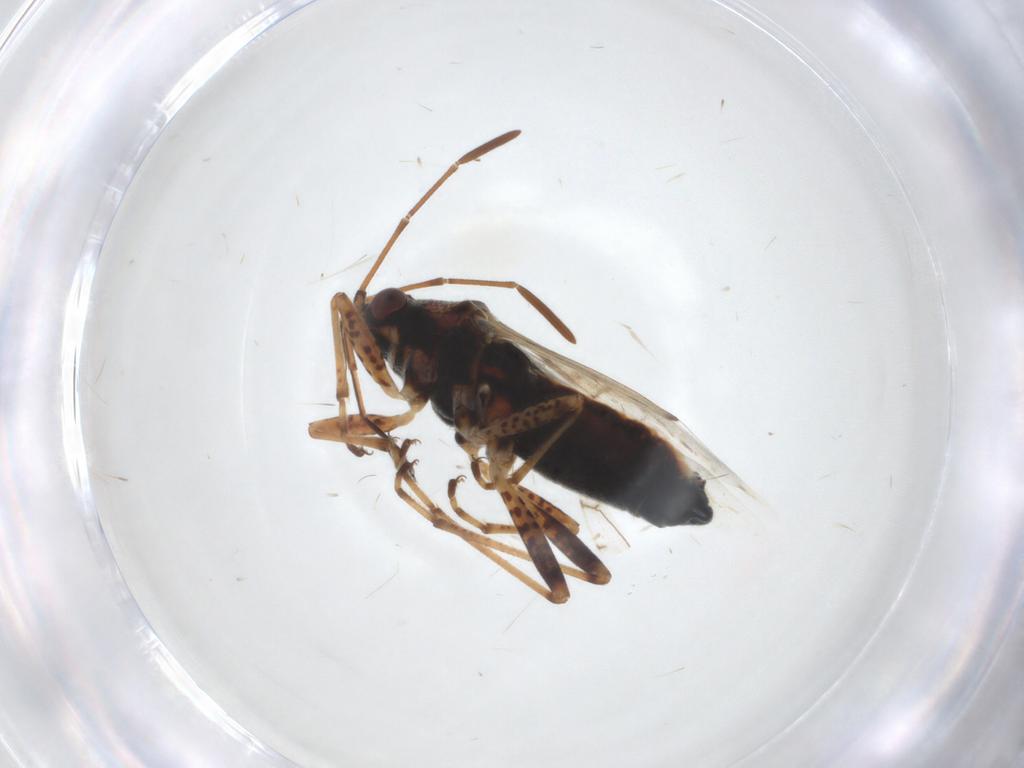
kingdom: Animalia
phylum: Arthropoda
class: Insecta
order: Hemiptera
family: Lygaeidae
